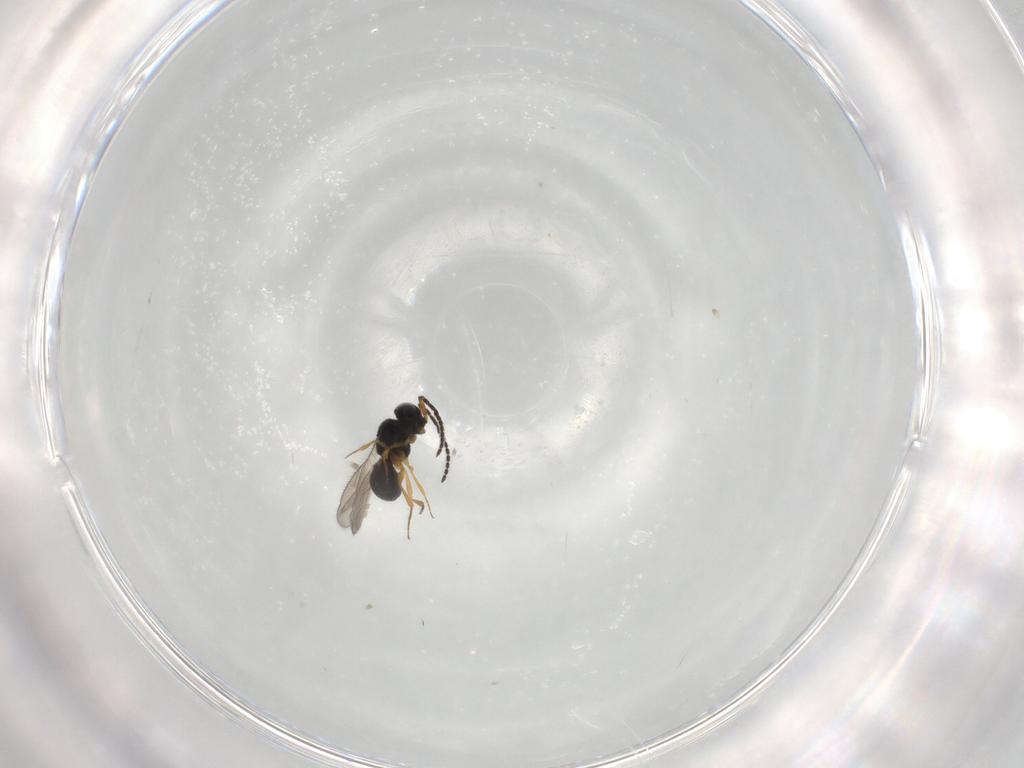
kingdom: Animalia
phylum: Arthropoda
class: Insecta
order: Hymenoptera
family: Scelionidae
